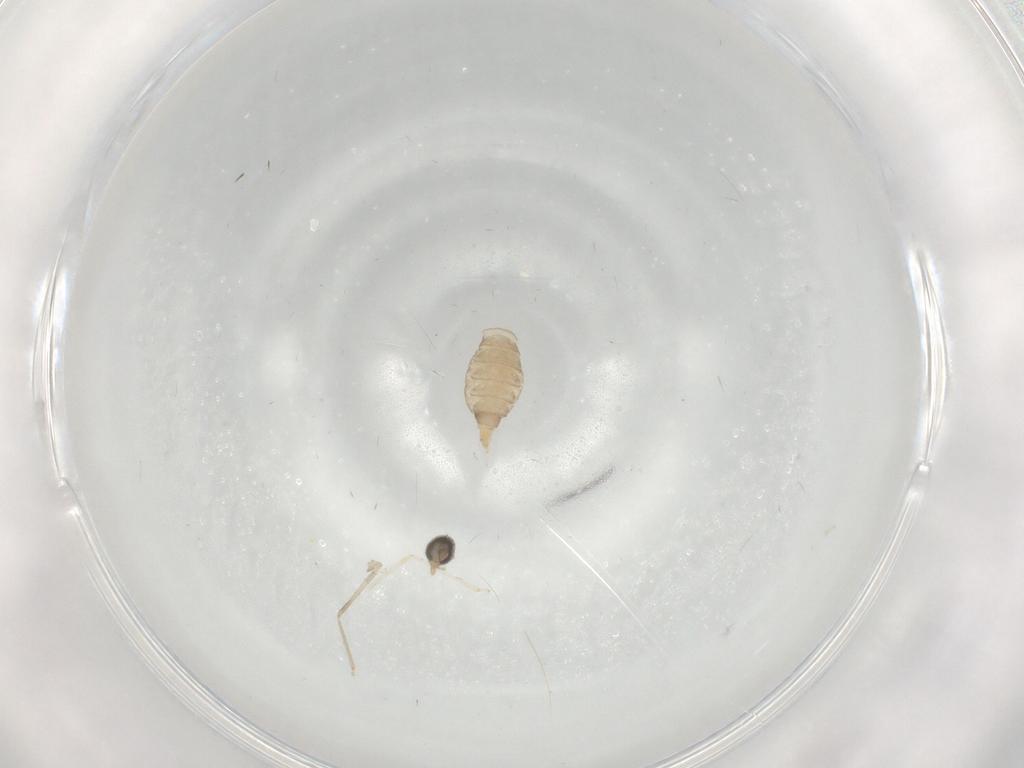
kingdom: Animalia
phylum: Arthropoda
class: Insecta
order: Diptera
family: Cecidomyiidae
